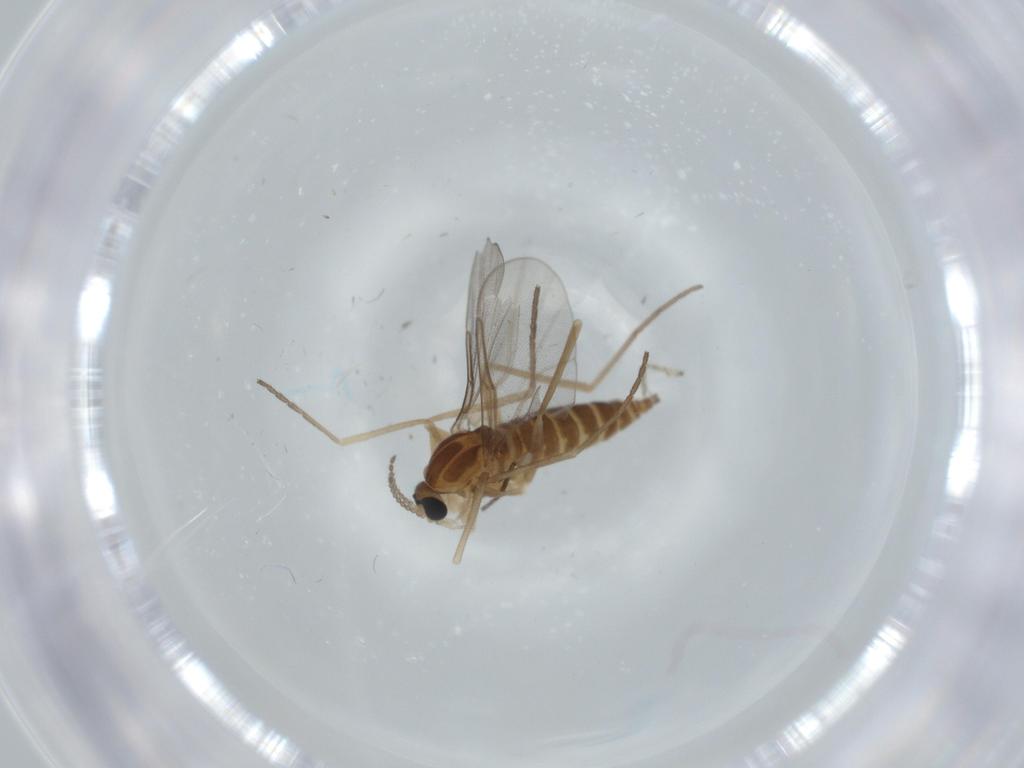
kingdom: Animalia
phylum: Arthropoda
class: Insecta
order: Diptera
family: Cecidomyiidae
